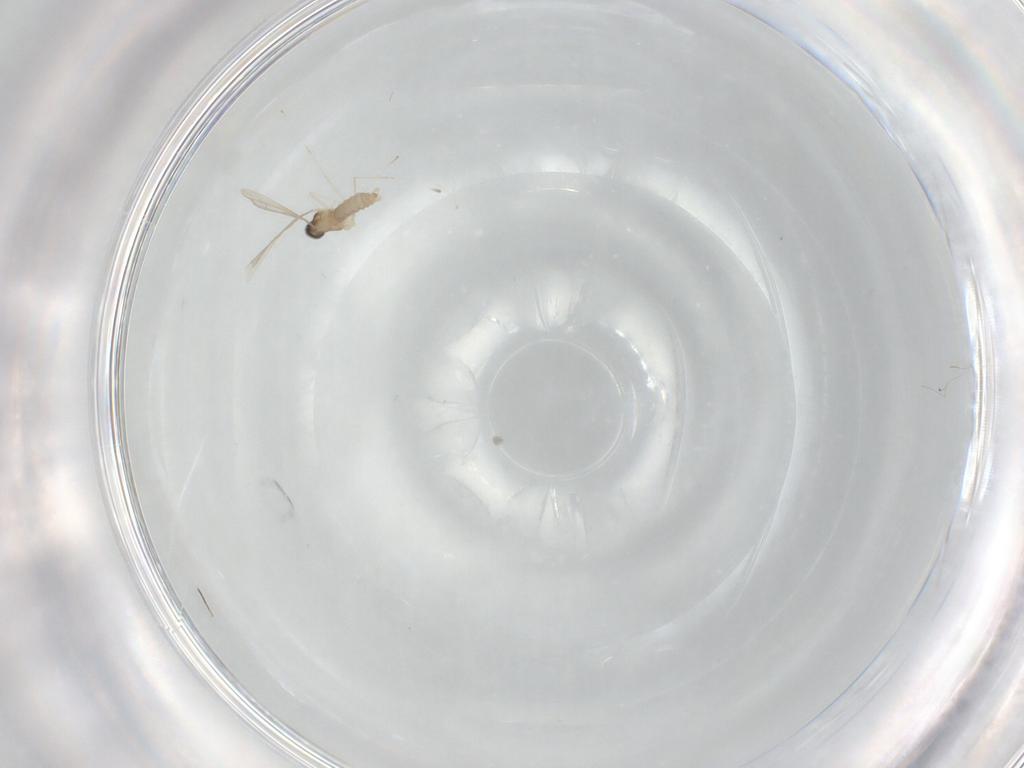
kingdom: Animalia
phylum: Arthropoda
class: Insecta
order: Diptera
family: Cecidomyiidae
